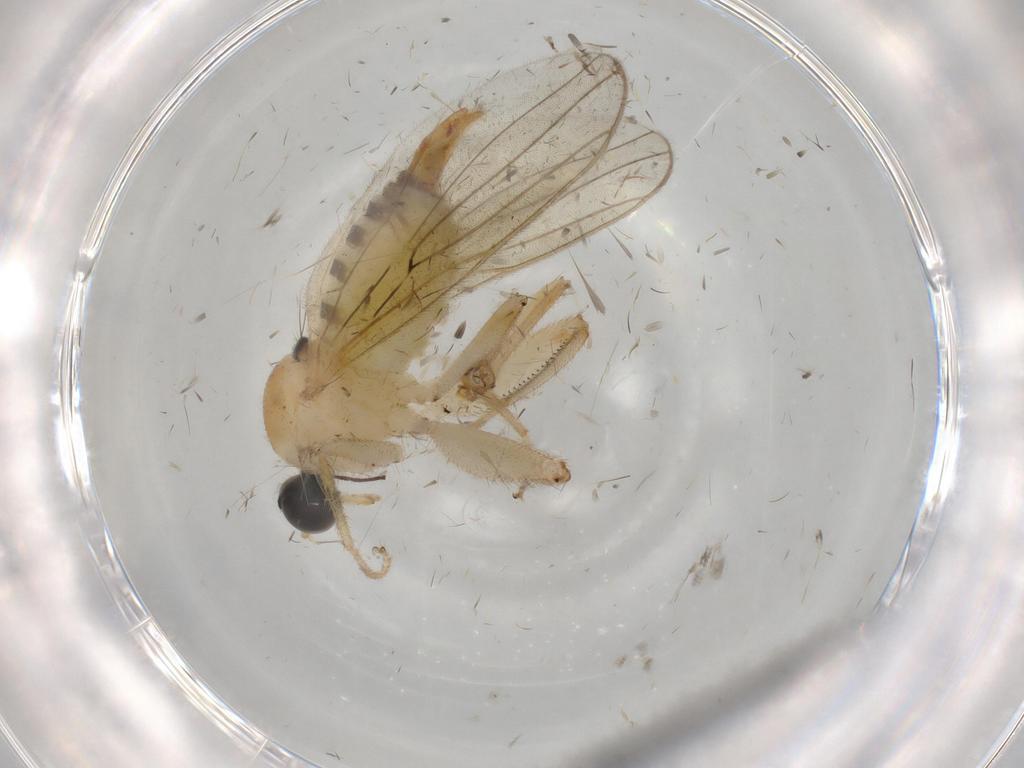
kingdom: Animalia
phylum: Arthropoda
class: Insecta
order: Diptera
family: Hybotidae
